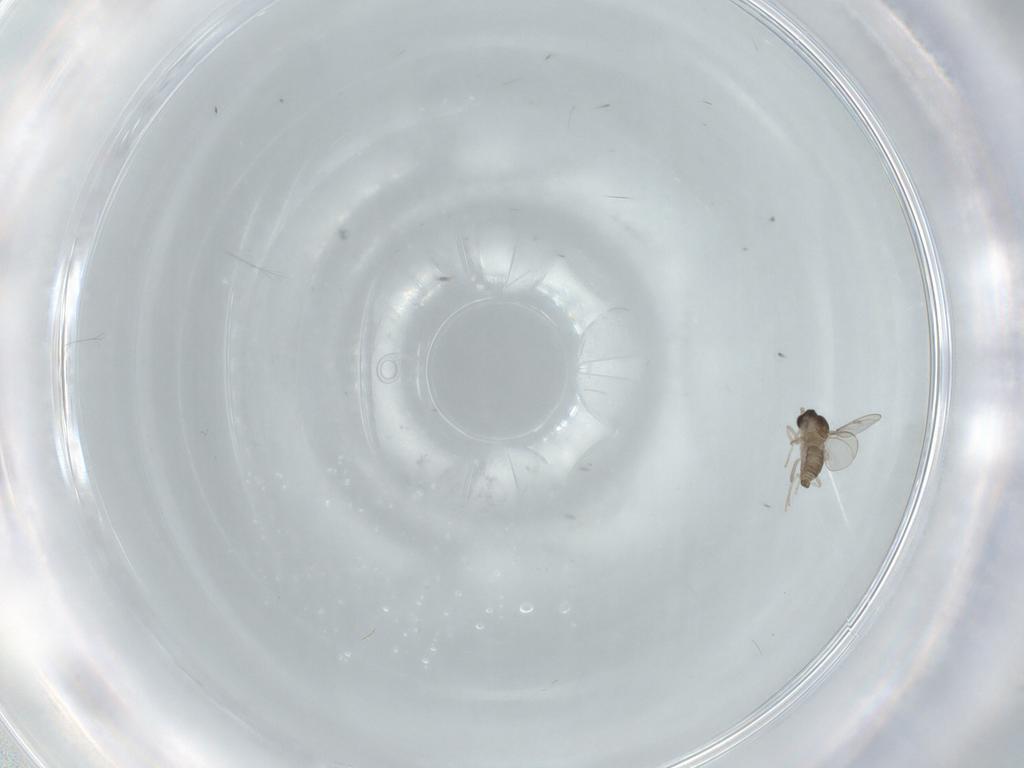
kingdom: Animalia
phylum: Arthropoda
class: Insecta
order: Diptera
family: Cecidomyiidae
